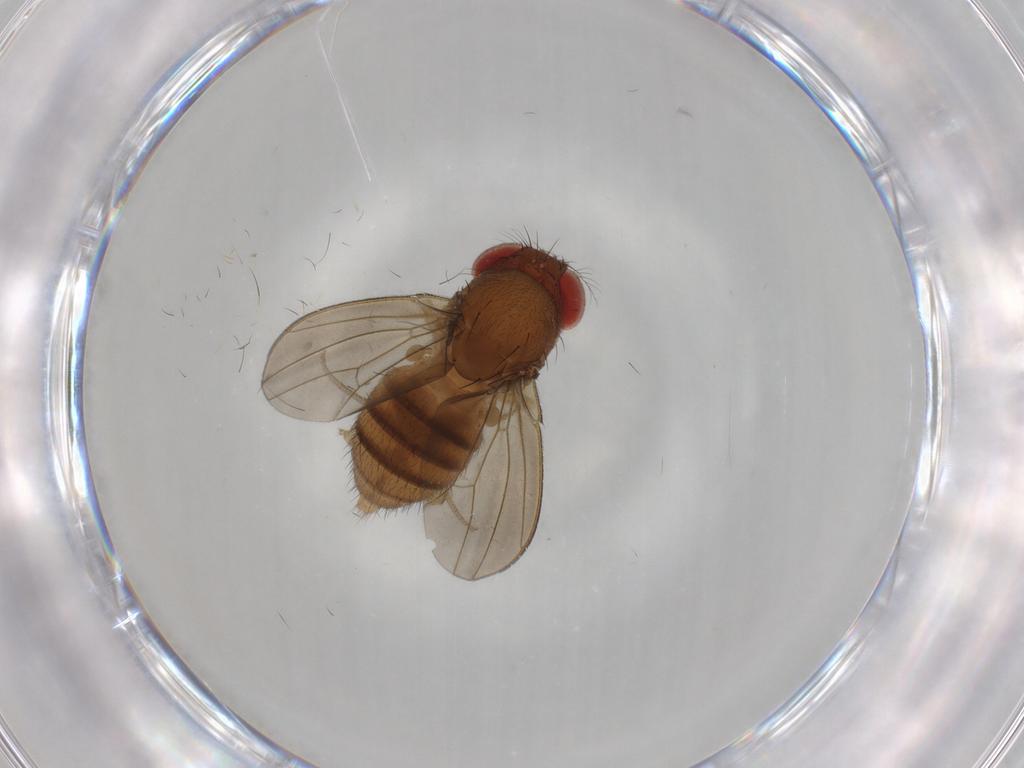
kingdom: Animalia
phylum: Arthropoda
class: Insecta
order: Diptera
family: Drosophilidae
